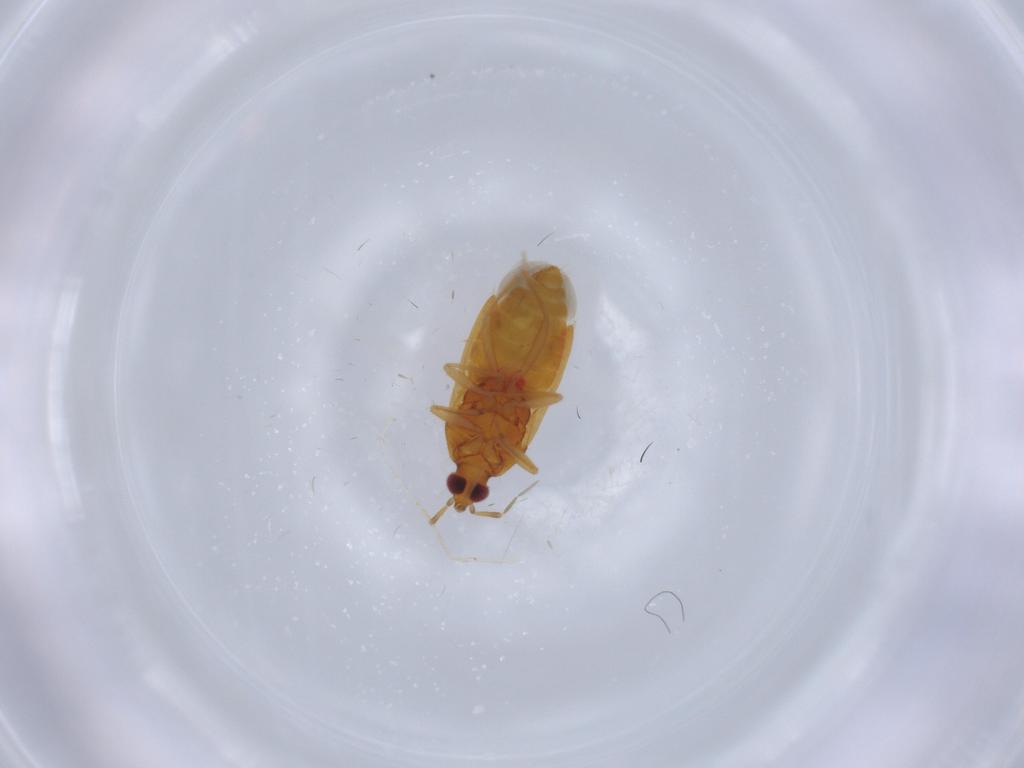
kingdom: Animalia
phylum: Arthropoda
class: Insecta
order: Hemiptera
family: Anthocoridae
